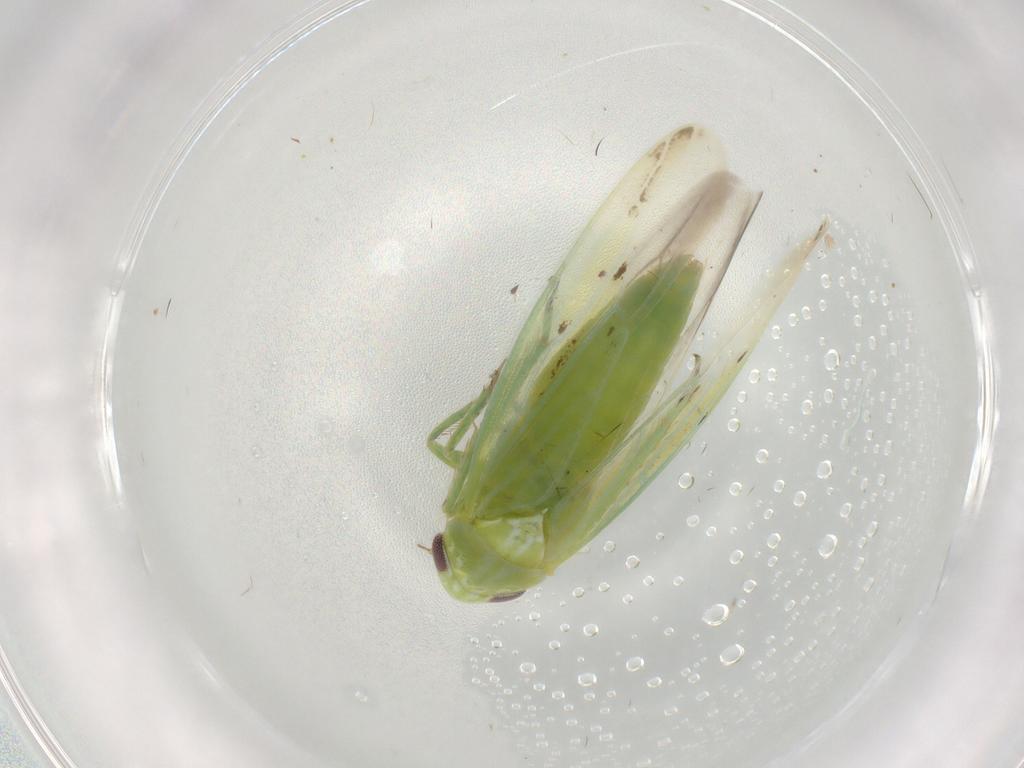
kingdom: Animalia
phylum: Arthropoda
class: Insecta
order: Hemiptera
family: Cicadellidae
